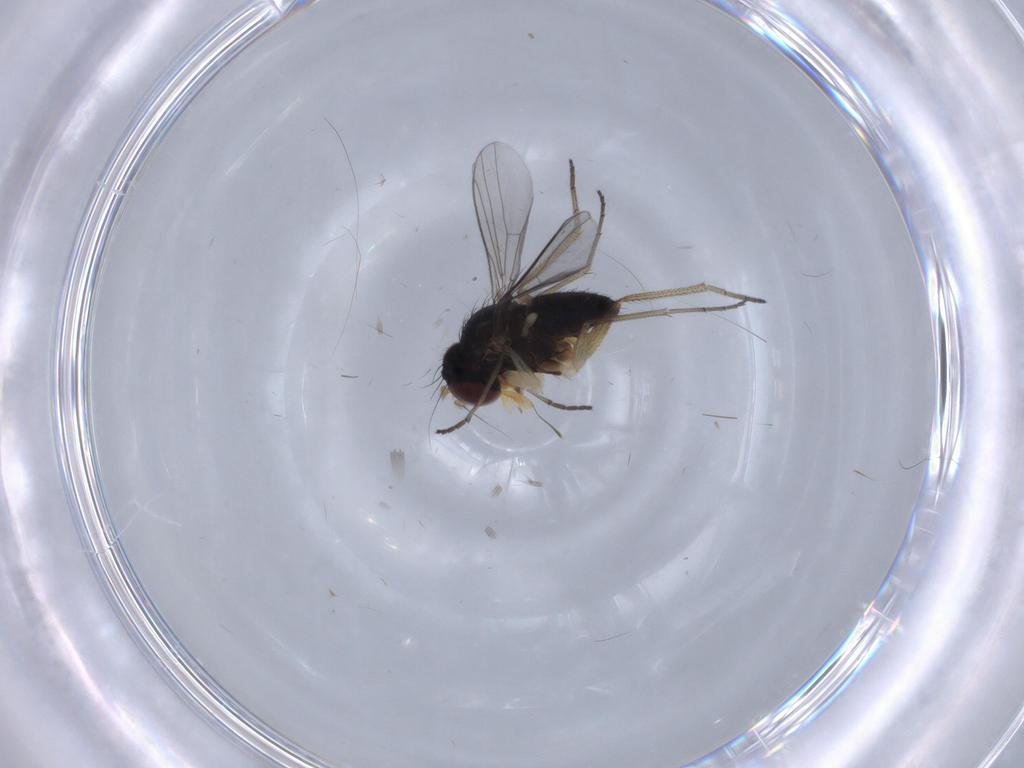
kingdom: Animalia
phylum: Arthropoda
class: Insecta
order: Diptera
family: Dolichopodidae
